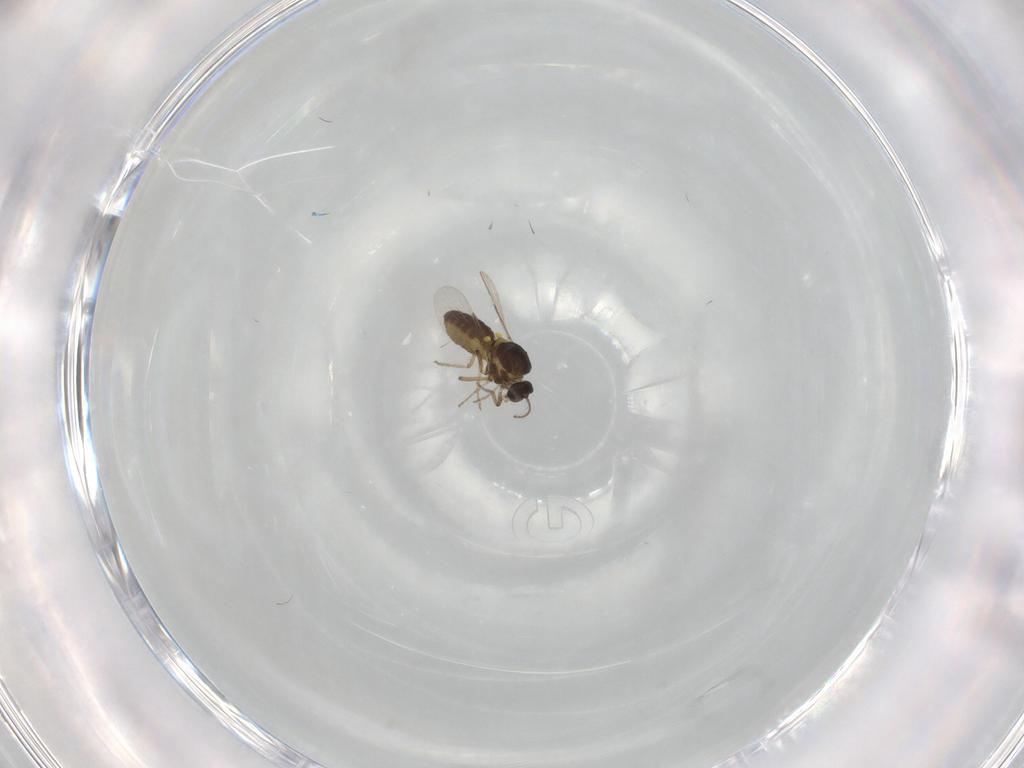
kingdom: Animalia
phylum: Arthropoda
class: Insecta
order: Diptera
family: Ceratopogonidae
